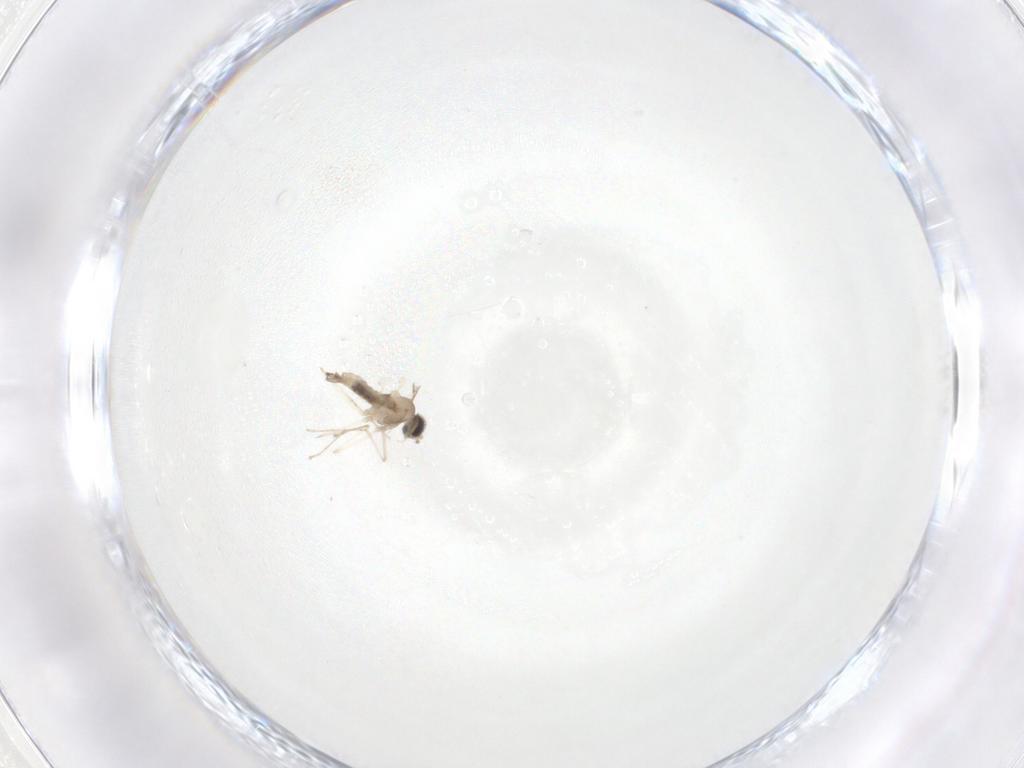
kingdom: Animalia
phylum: Arthropoda
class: Insecta
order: Diptera
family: Cecidomyiidae
